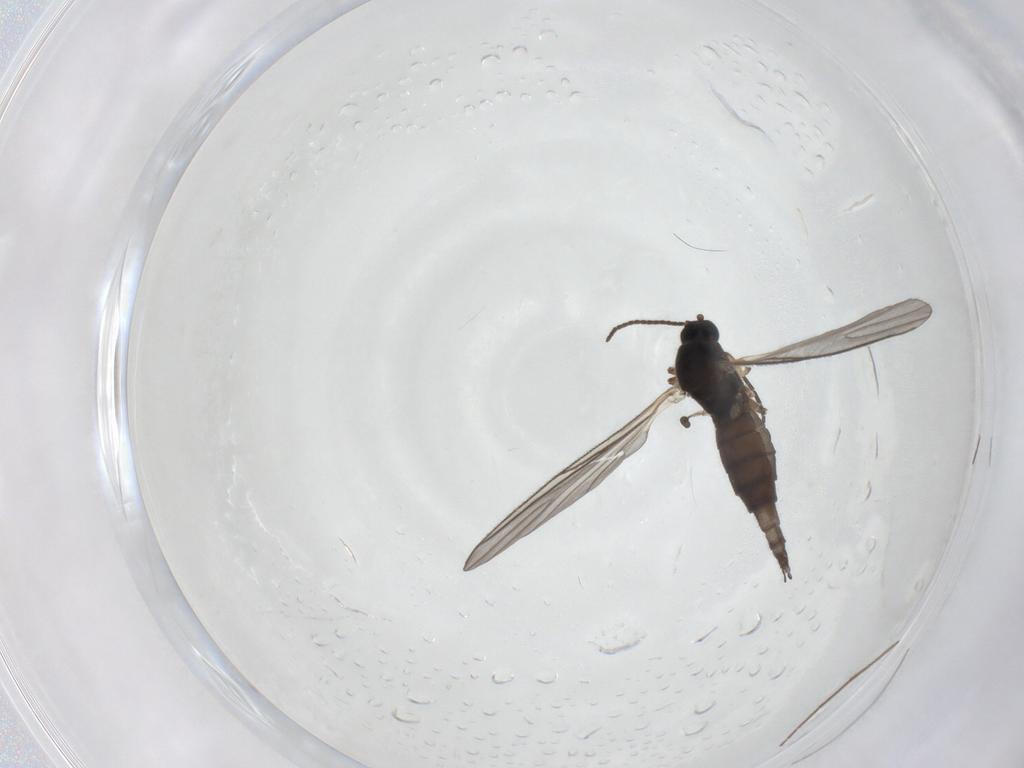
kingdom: Animalia
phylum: Arthropoda
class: Insecta
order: Diptera
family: Sciaridae
